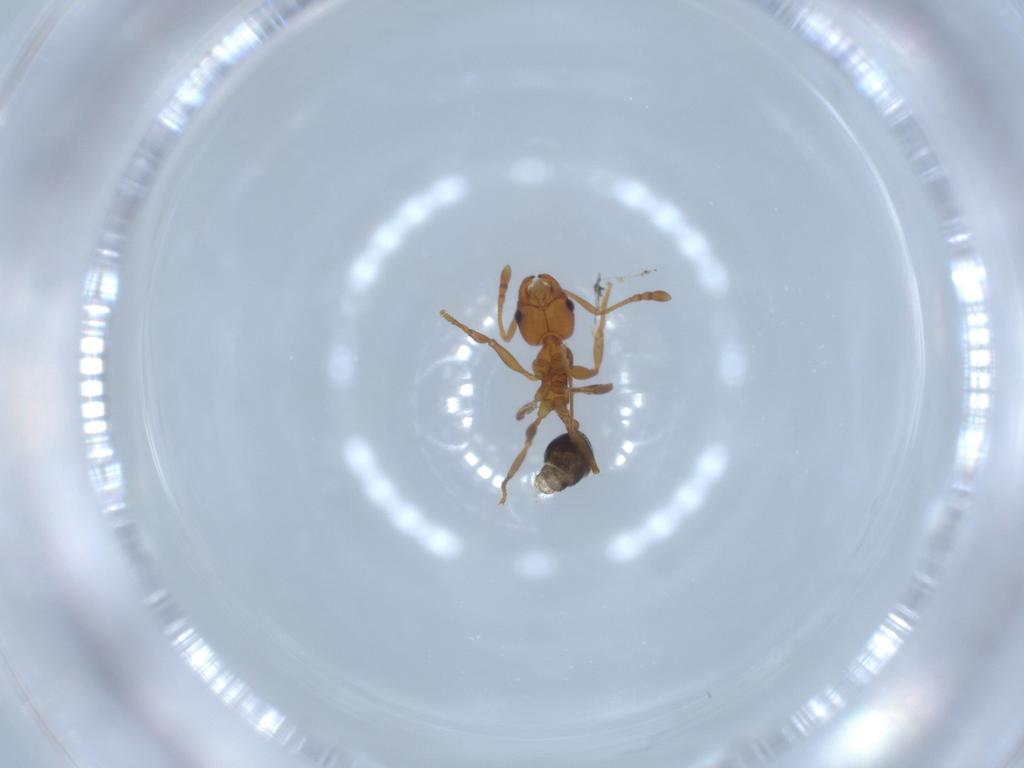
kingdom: Animalia
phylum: Arthropoda
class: Insecta
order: Hymenoptera
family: Formicidae
